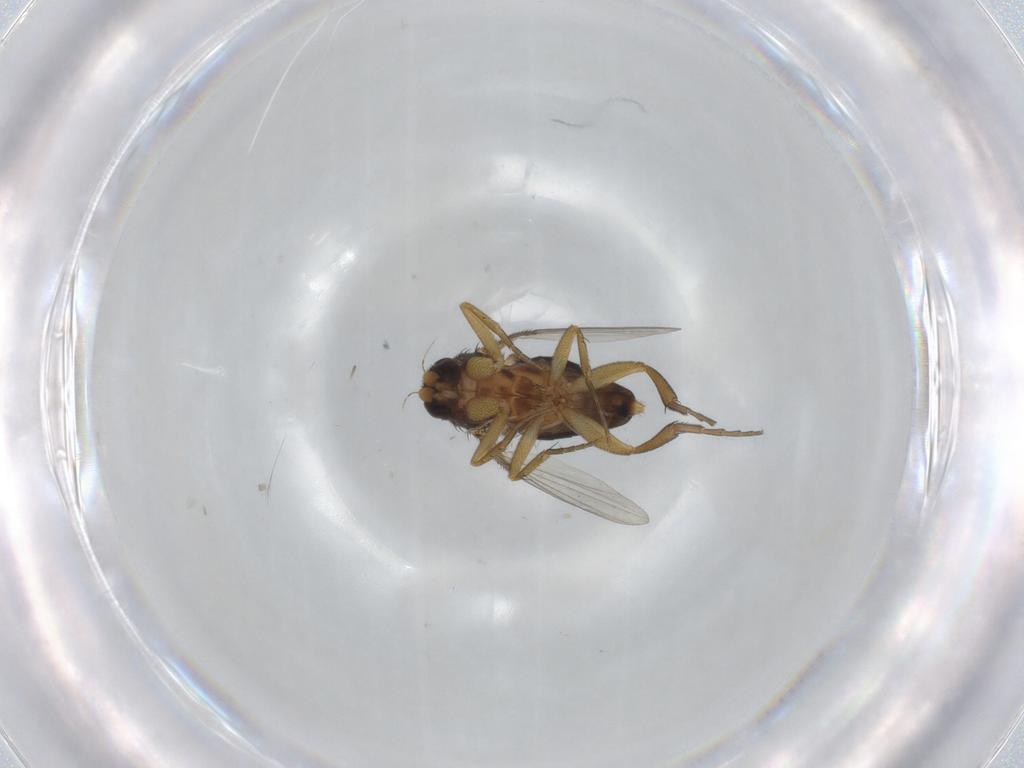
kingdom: Animalia
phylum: Arthropoda
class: Insecta
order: Diptera
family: Phoridae
